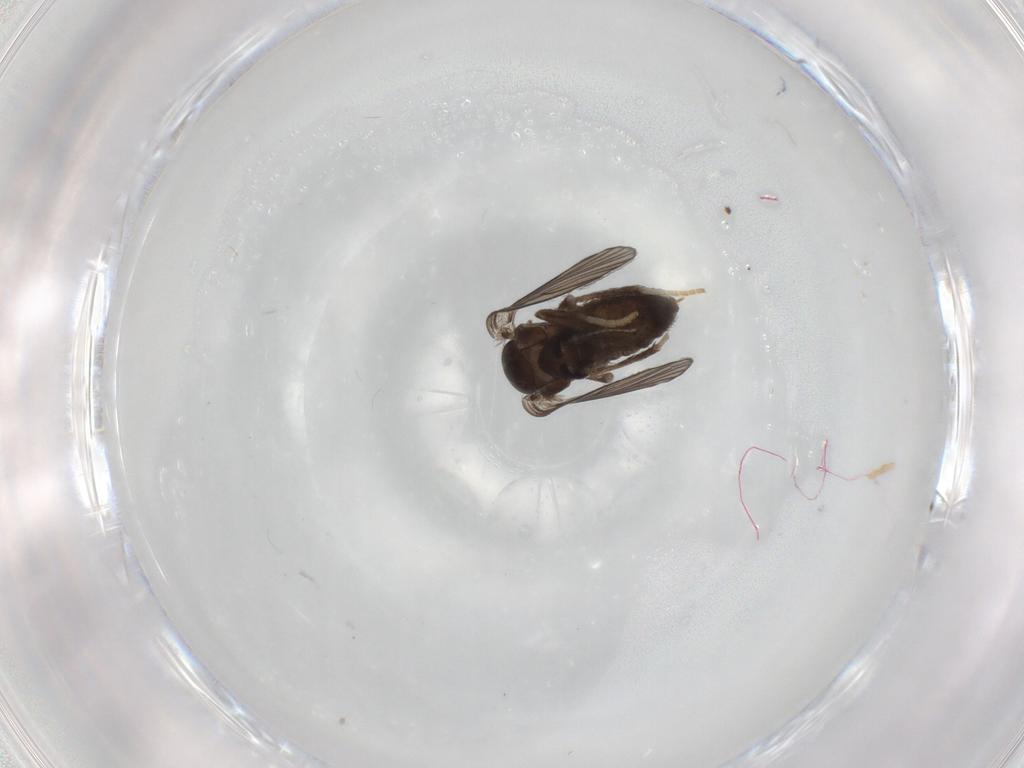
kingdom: Animalia
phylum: Arthropoda
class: Insecta
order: Diptera
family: Psychodidae
